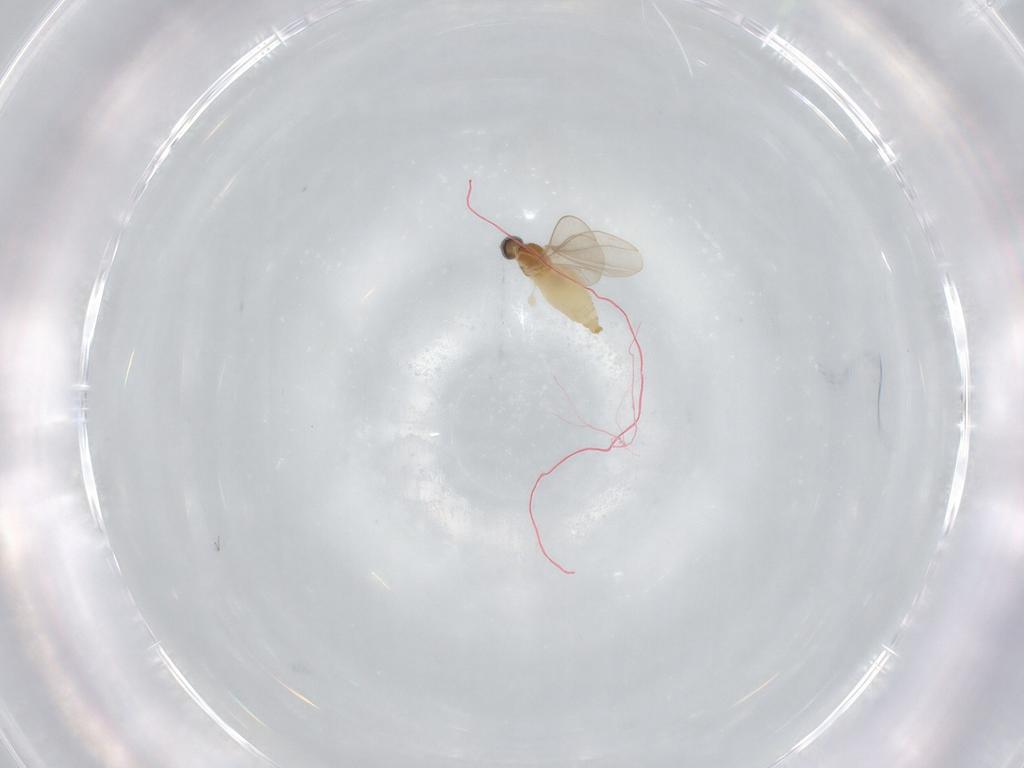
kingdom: Animalia
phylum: Arthropoda
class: Insecta
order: Diptera
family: Cecidomyiidae
